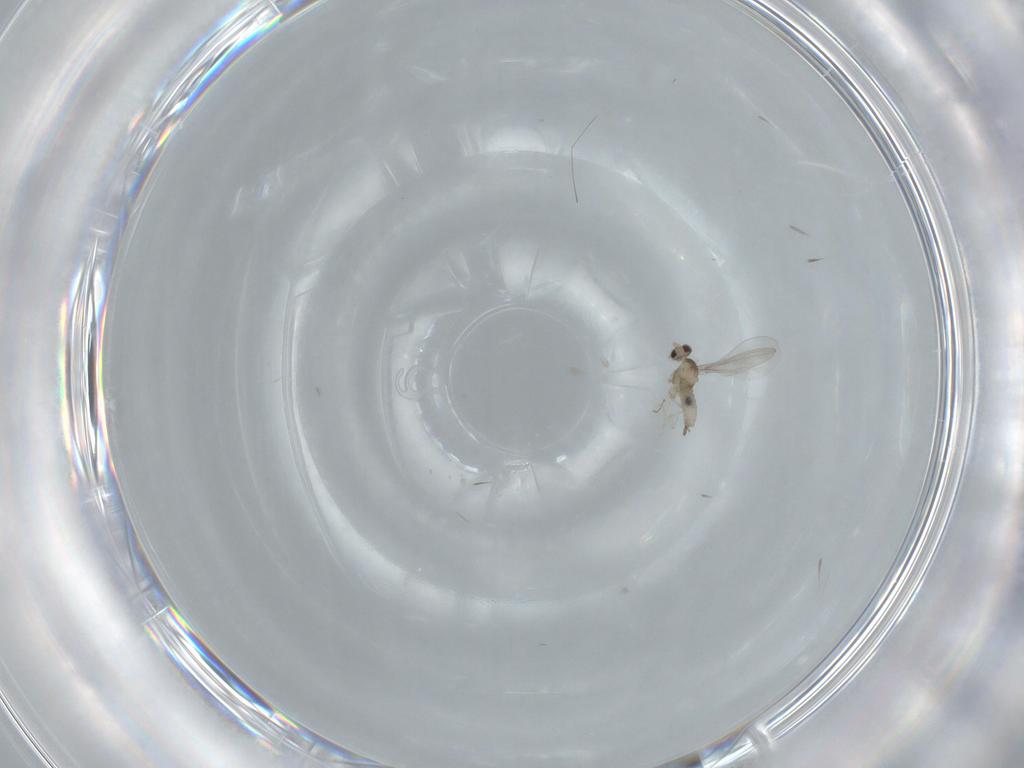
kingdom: Animalia
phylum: Arthropoda
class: Insecta
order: Diptera
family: Cecidomyiidae
